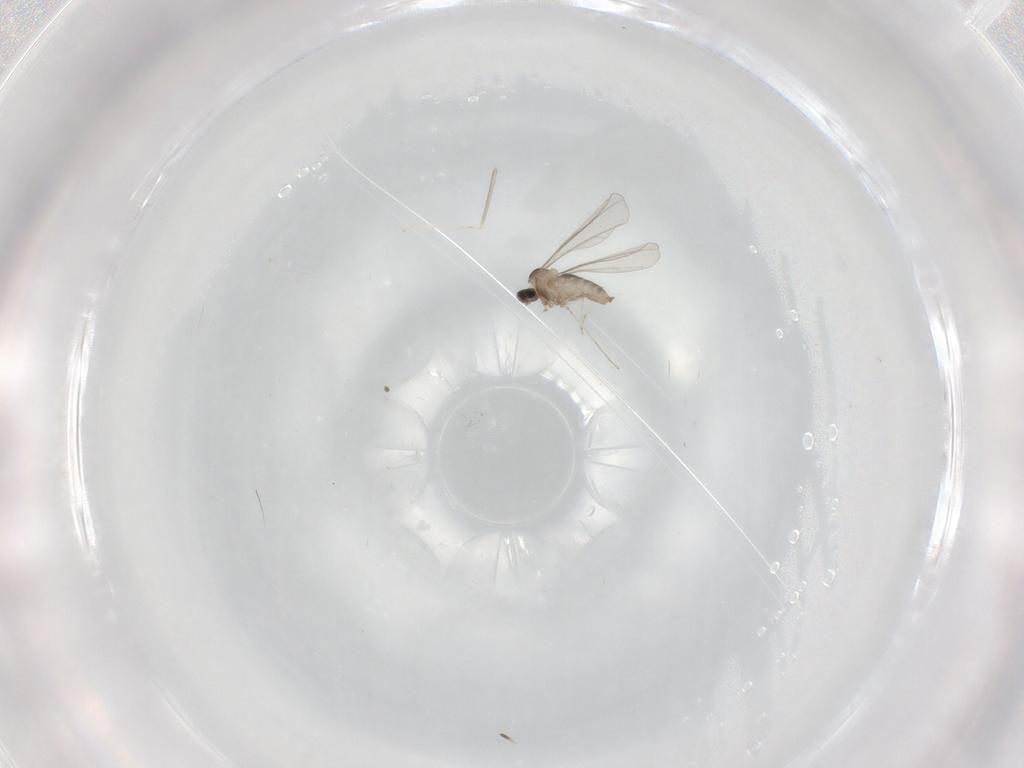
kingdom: Animalia
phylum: Arthropoda
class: Insecta
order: Diptera
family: Cecidomyiidae
